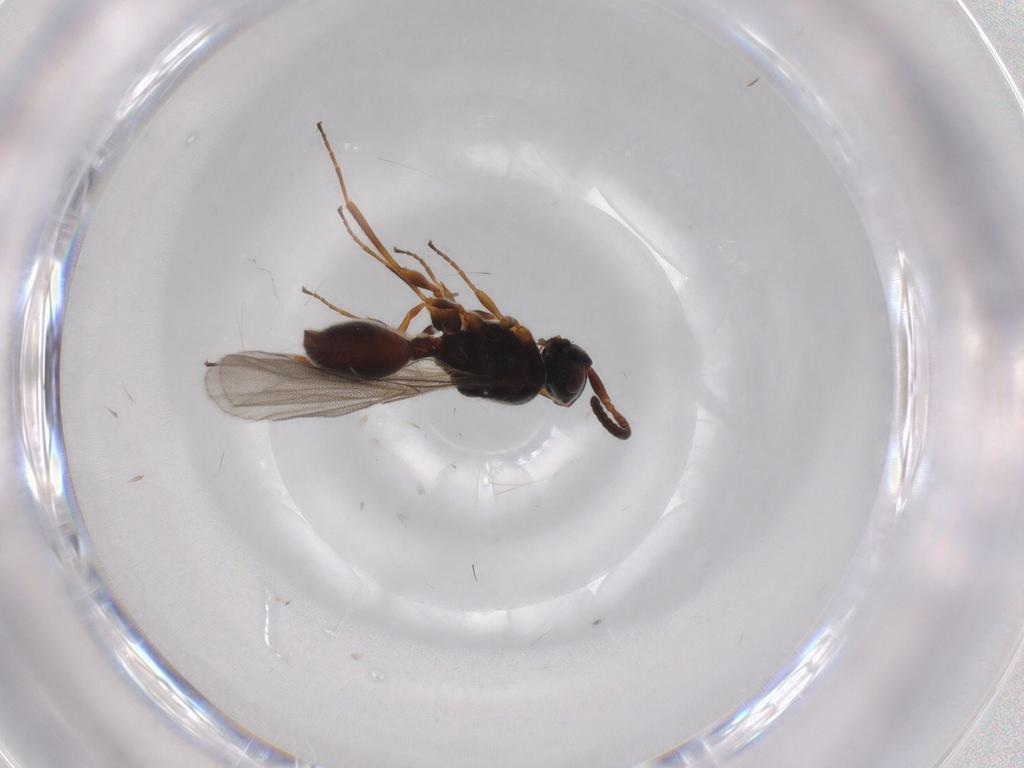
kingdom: Animalia
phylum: Arthropoda
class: Insecta
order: Hymenoptera
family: Diapriidae
